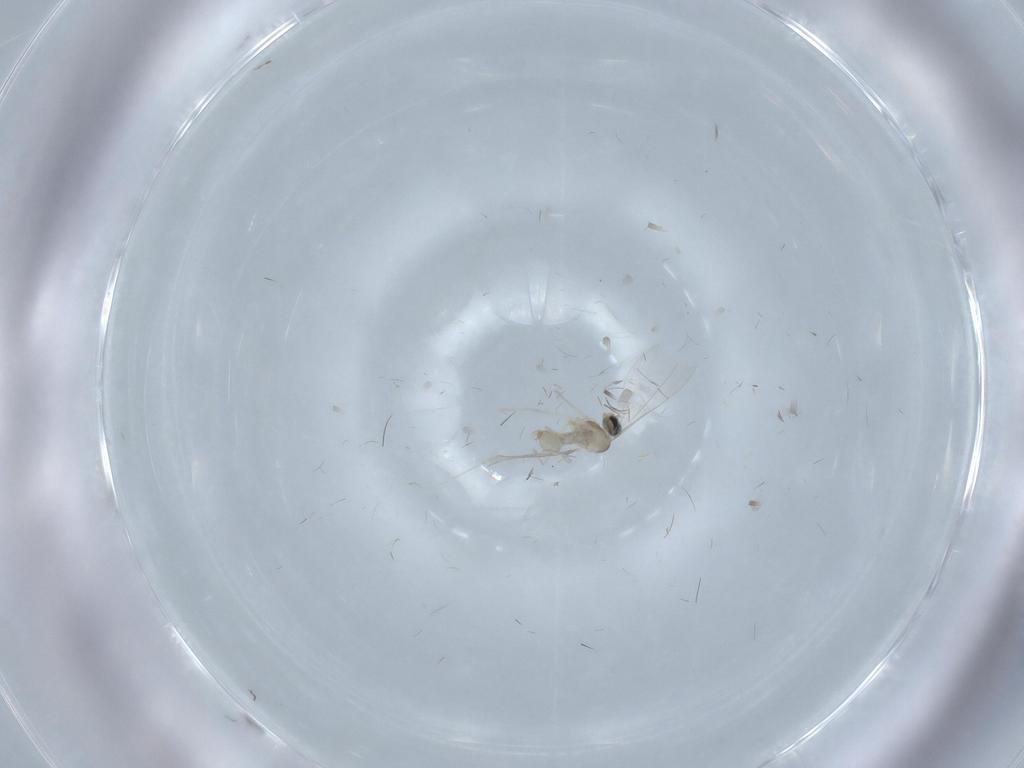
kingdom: Animalia
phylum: Arthropoda
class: Insecta
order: Diptera
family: Cecidomyiidae
